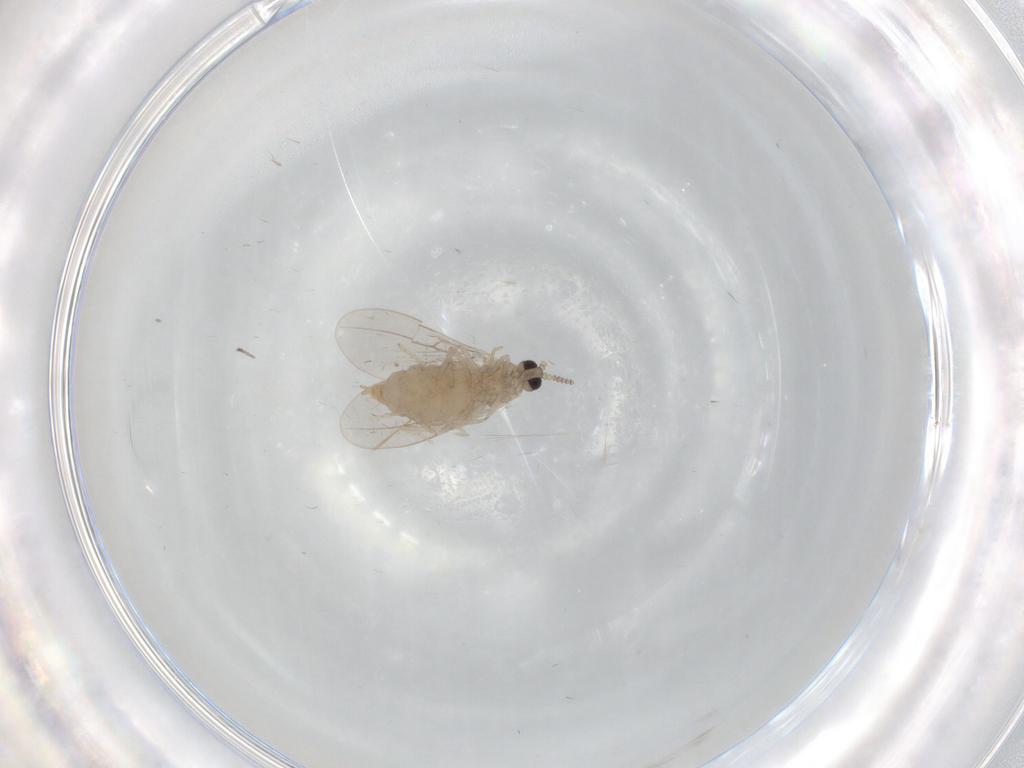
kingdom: Animalia
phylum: Arthropoda
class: Insecta
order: Diptera
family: Cecidomyiidae
